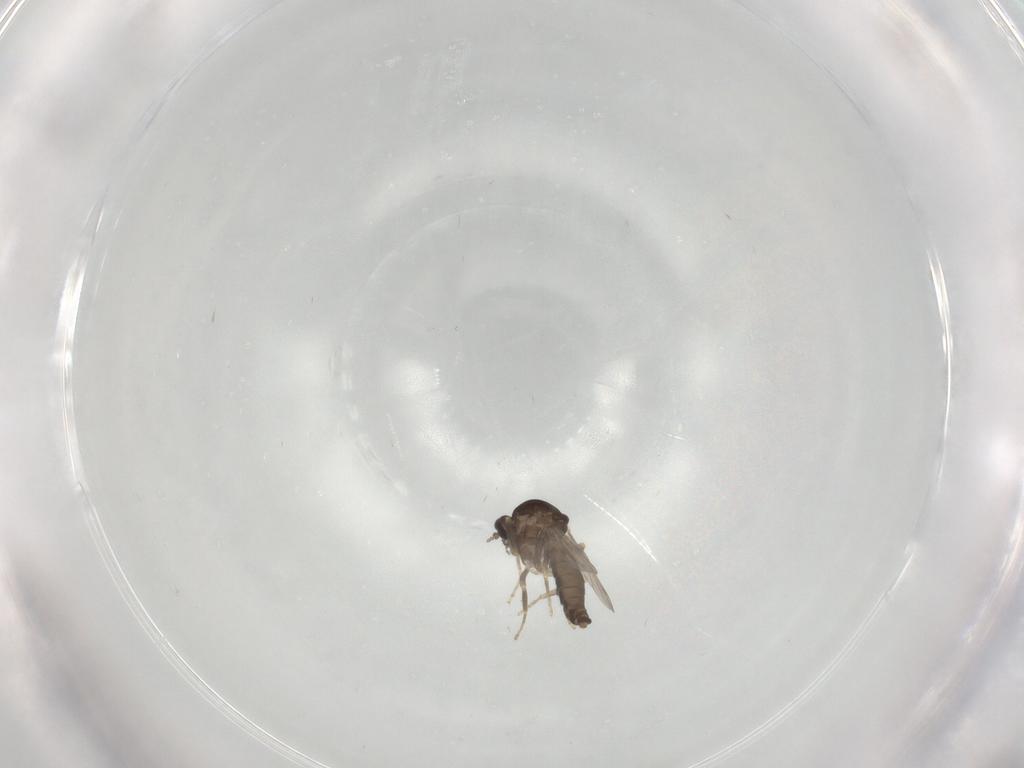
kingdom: Animalia
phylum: Arthropoda
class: Insecta
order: Diptera
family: Ceratopogonidae
